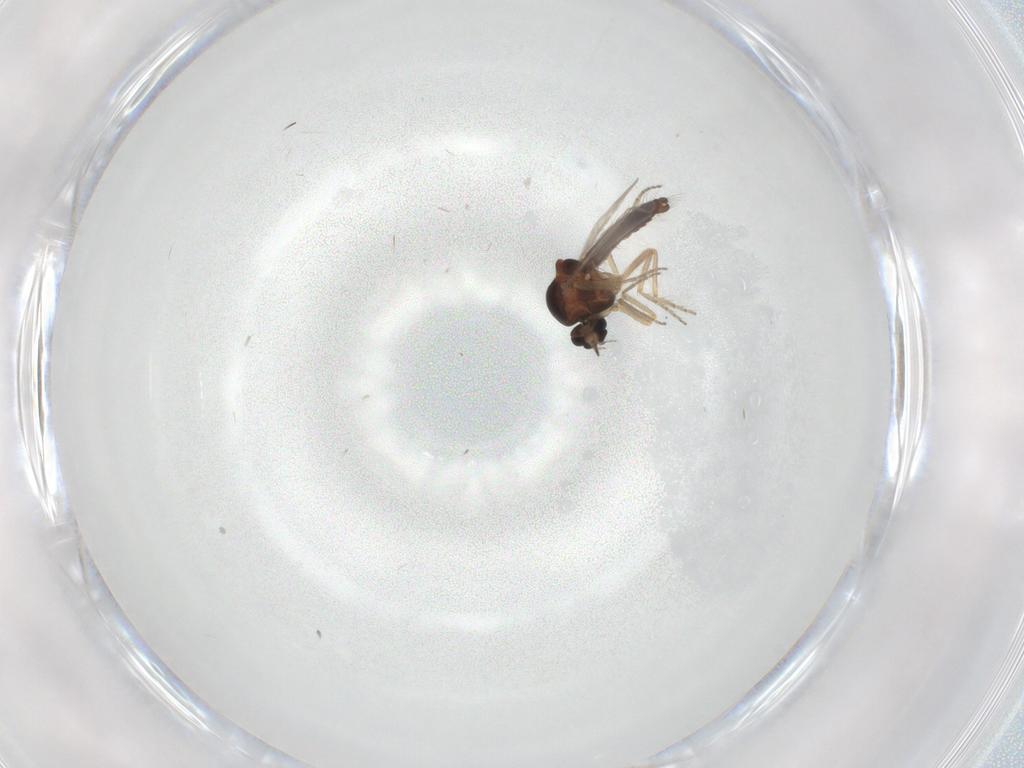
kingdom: Animalia
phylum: Arthropoda
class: Insecta
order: Diptera
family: Ceratopogonidae
